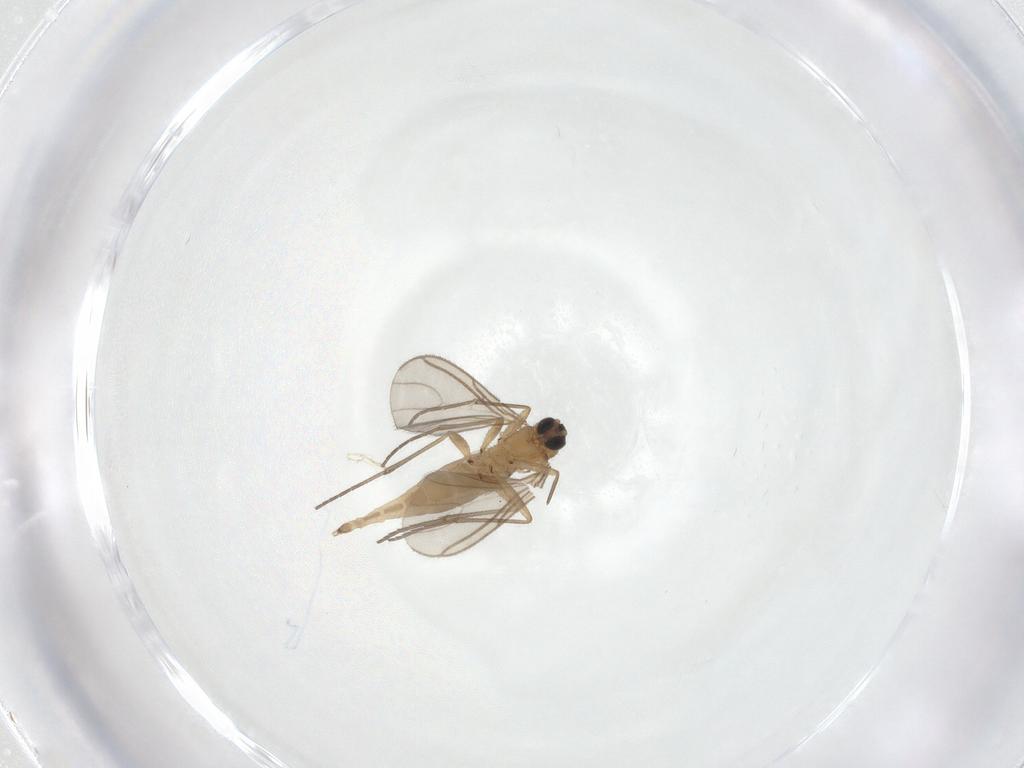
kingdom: Animalia
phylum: Arthropoda
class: Insecta
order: Diptera
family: Sciaridae
